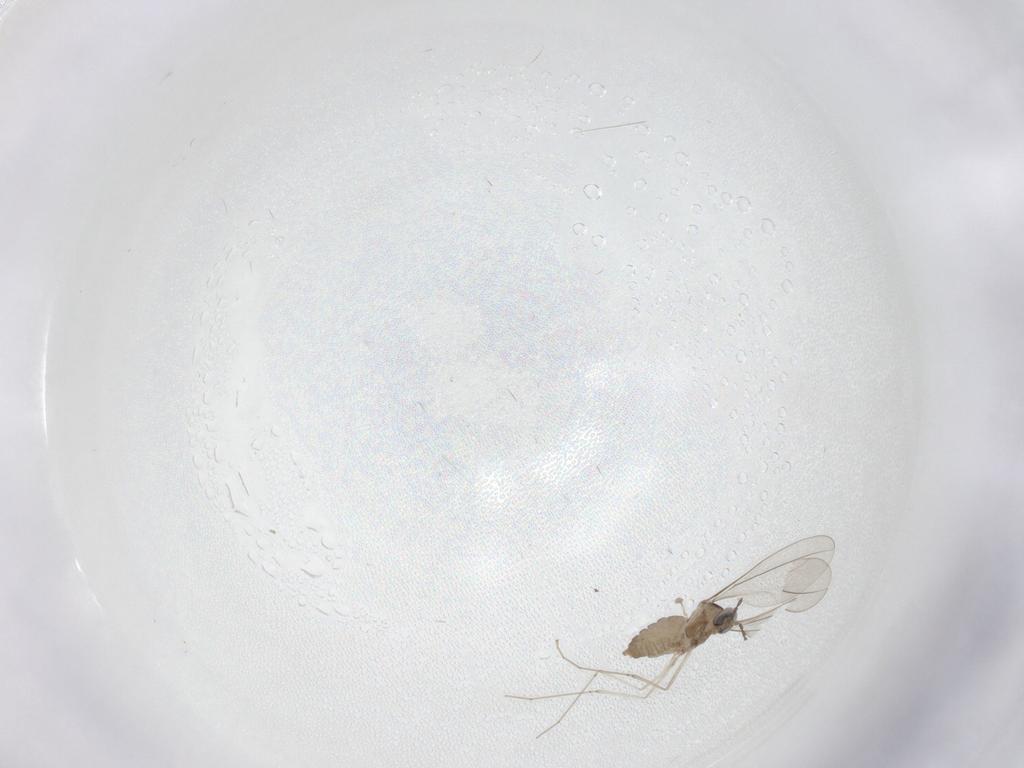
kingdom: Animalia
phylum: Arthropoda
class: Insecta
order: Diptera
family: Cecidomyiidae
